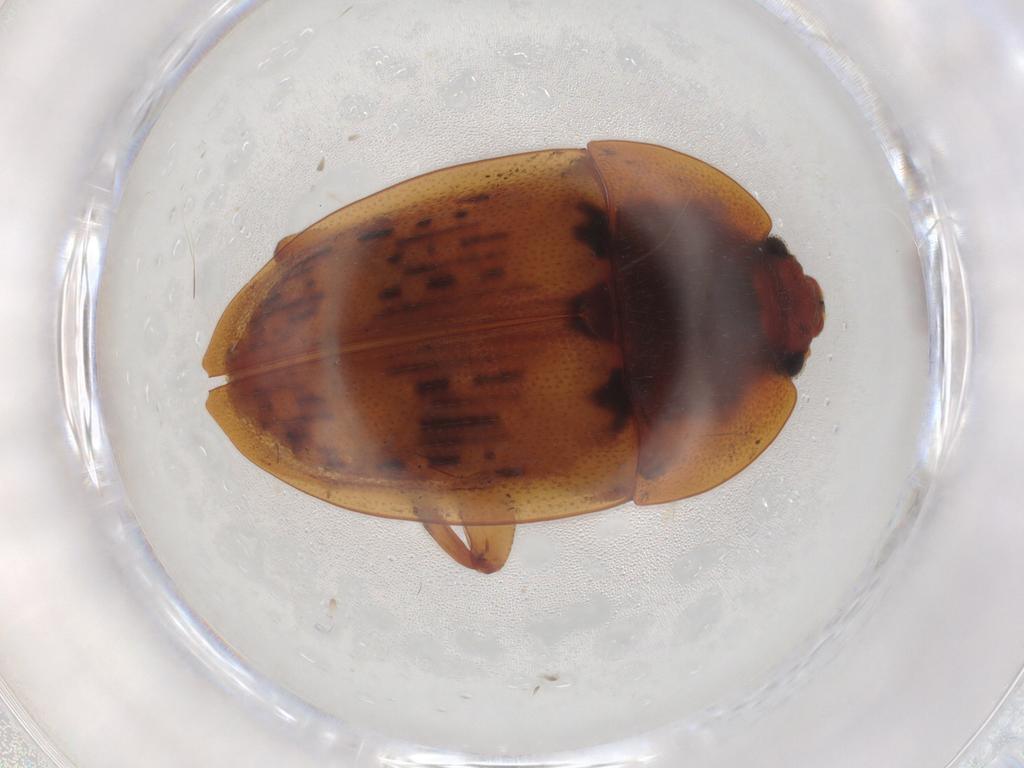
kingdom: Animalia
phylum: Arthropoda
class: Insecta
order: Coleoptera
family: Nitidulidae
